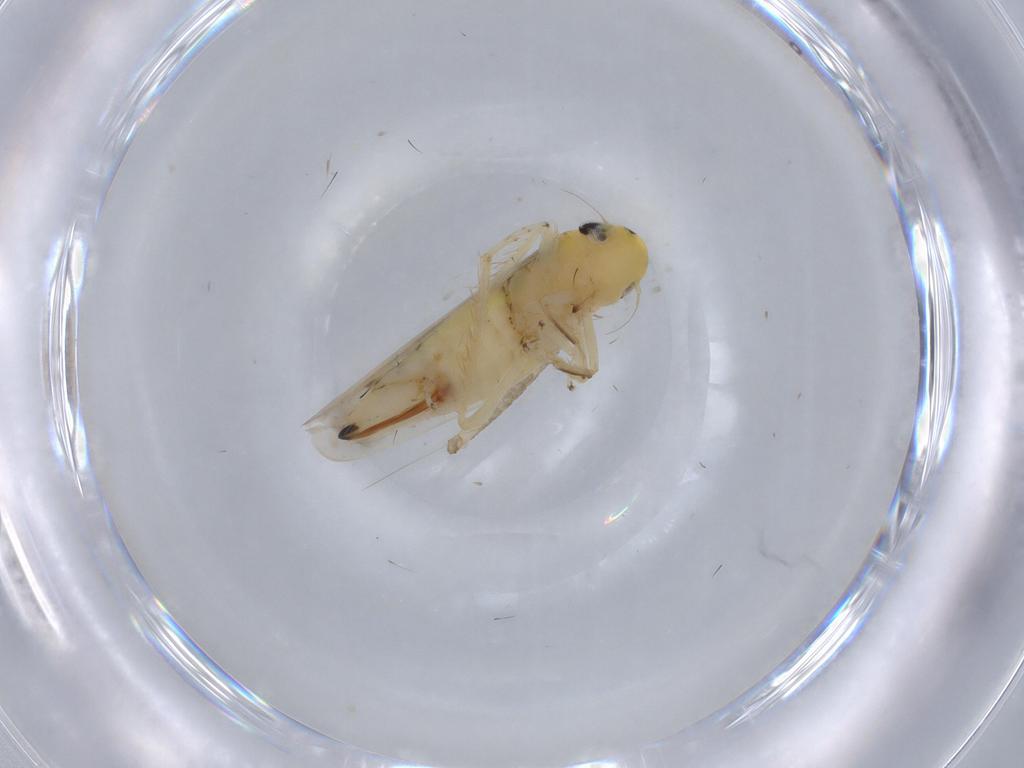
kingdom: Animalia
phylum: Arthropoda
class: Insecta
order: Hemiptera
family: Cicadellidae
